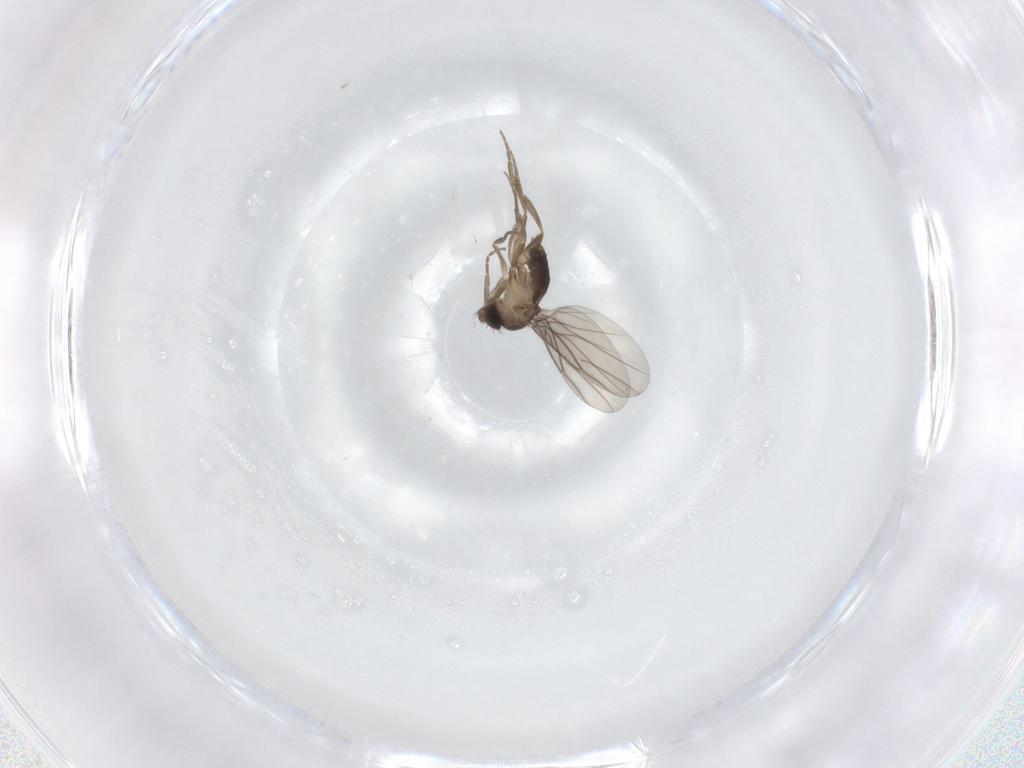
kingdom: Animalia
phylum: Arthropoda
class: Insecta
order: Diptera
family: Phoridae
